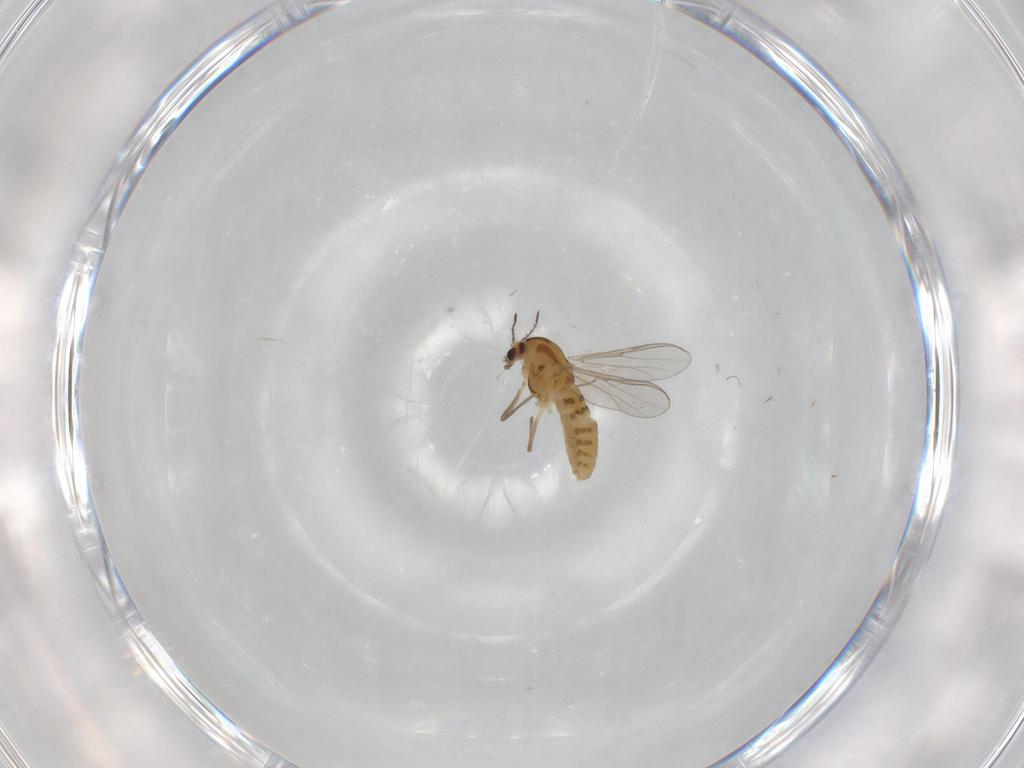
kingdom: Animalia
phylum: Arthropoda
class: Insecta
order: Diptera
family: Chironomidae
